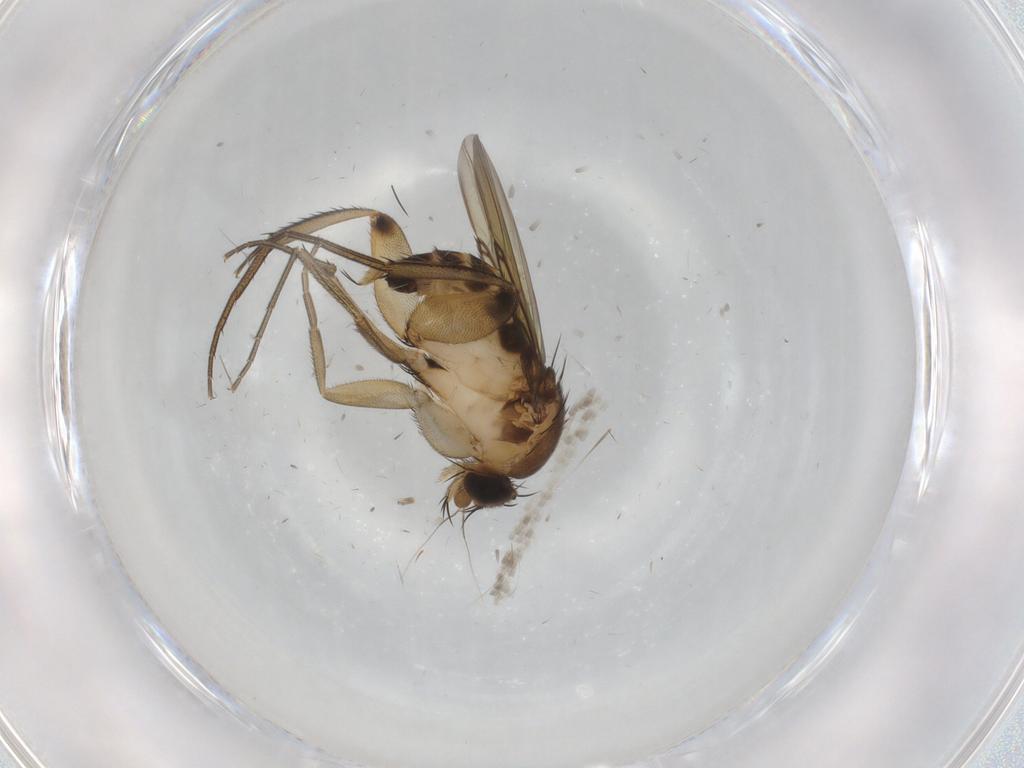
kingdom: Animalia
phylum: Arthropoda
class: Insecta
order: Diptera
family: Phoridae
